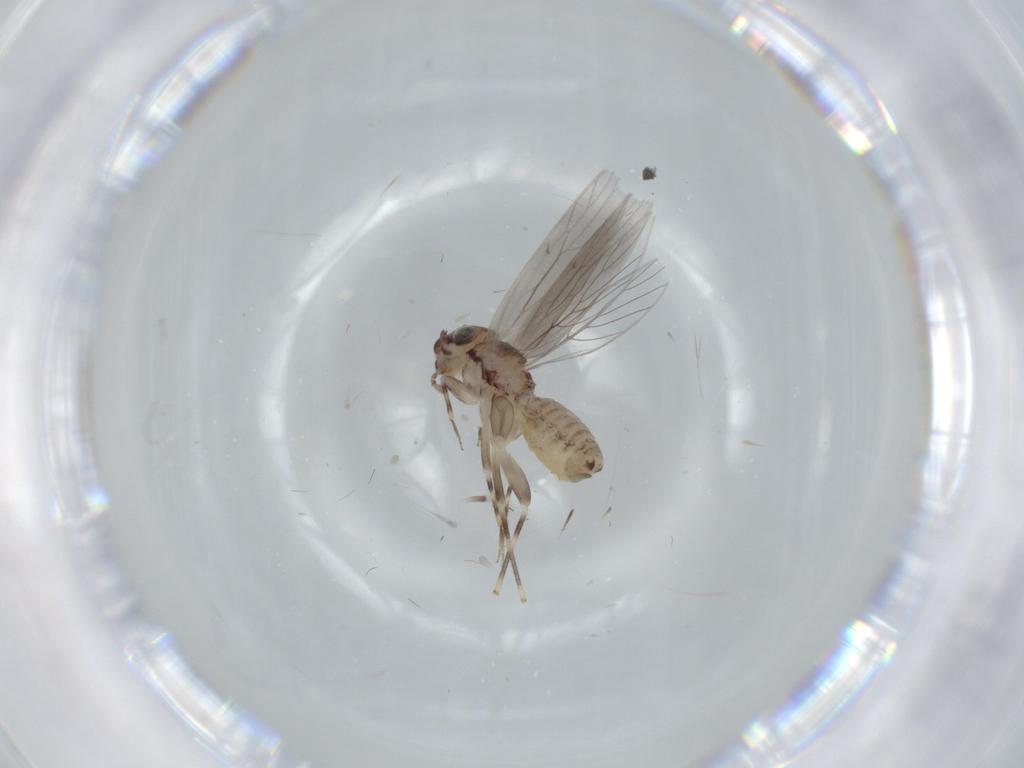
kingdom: Animalia
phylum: Arthropoda
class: Insecta
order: Psocodea
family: Lepidopsocidae
